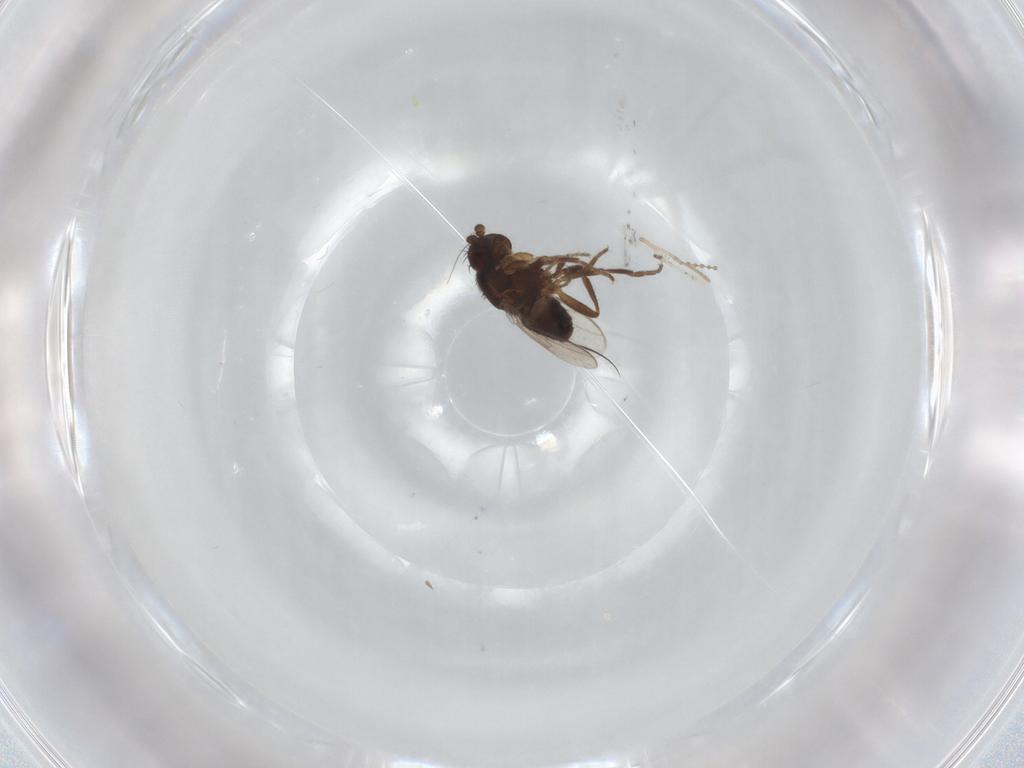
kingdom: Animalia
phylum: Arthropoda
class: Insecta
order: Diptera
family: Sphaeroceridae
